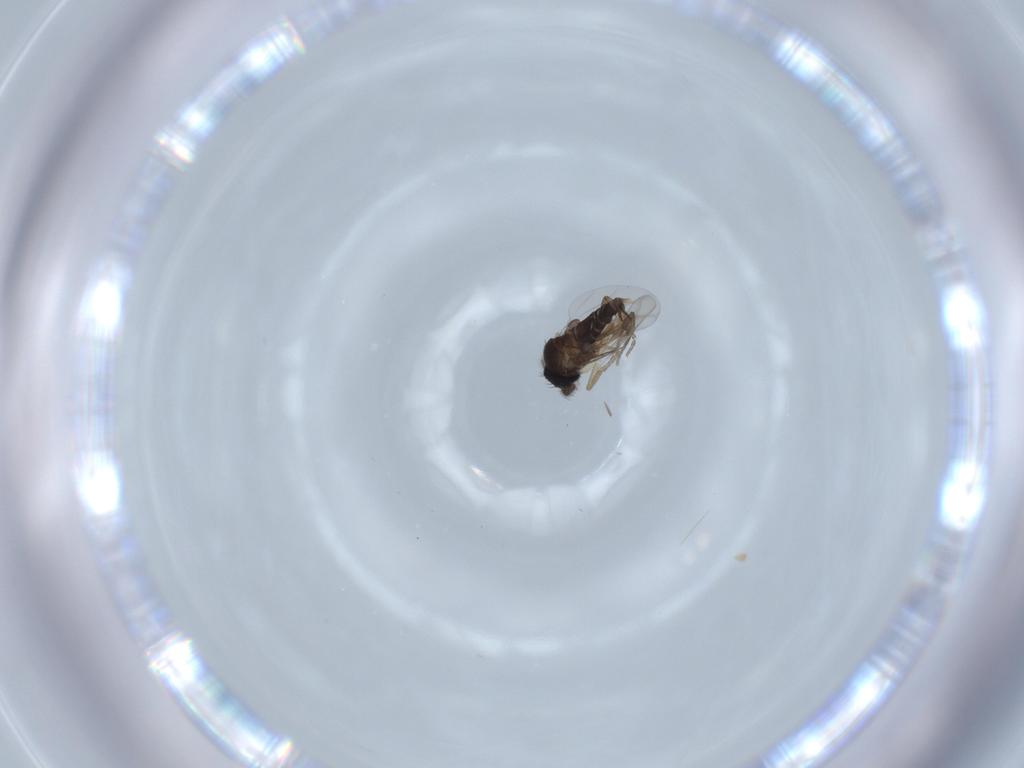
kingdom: Animalia
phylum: Arthropoda
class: Insecta
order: Diptera
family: Phoridae
